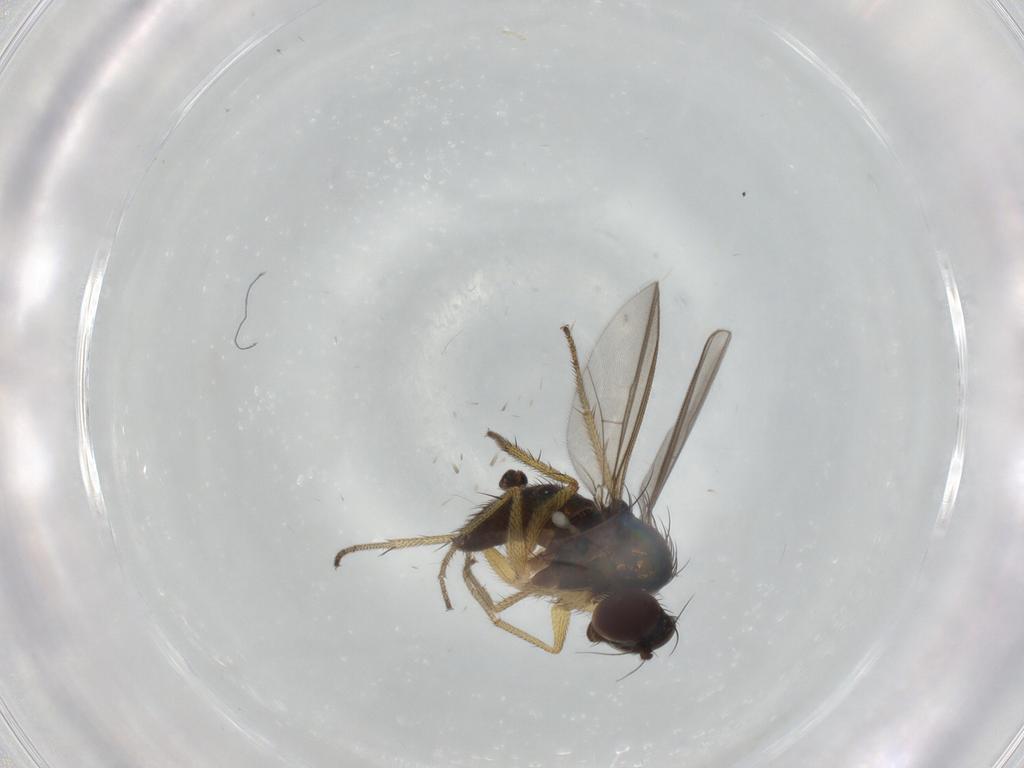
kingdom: Animalia
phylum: Arthropoda
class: Insecta
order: Diptera
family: Dolichopodidae
